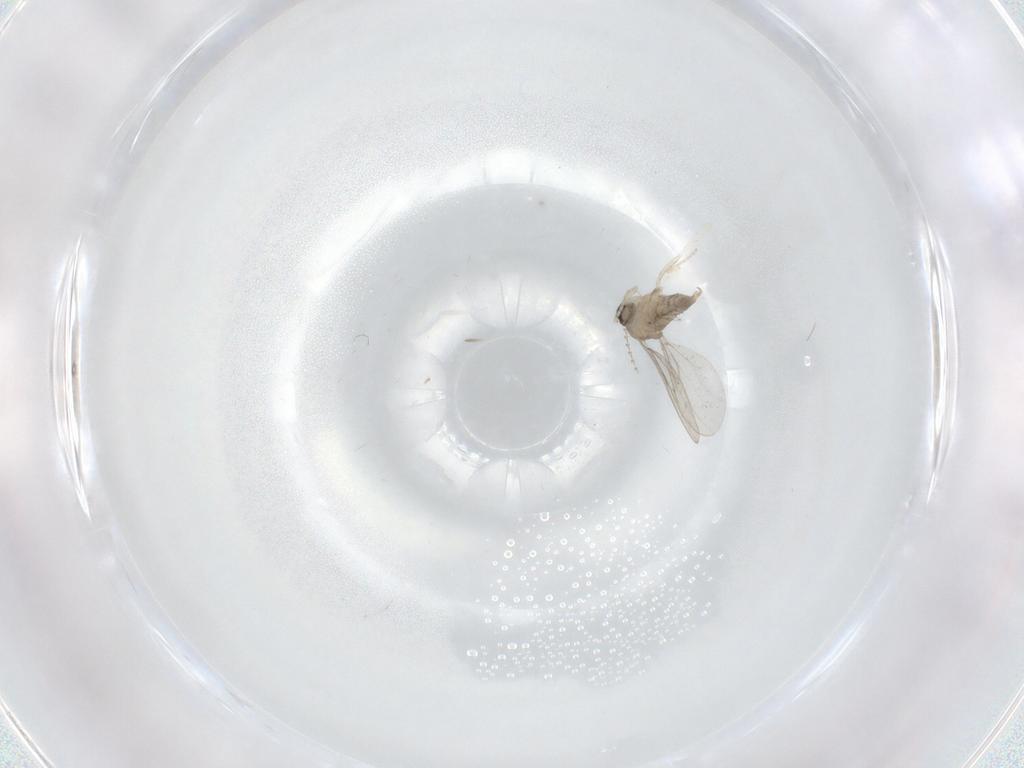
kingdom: Animalia
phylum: Arthropoda
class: Insecta
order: Diptera
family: Cecidomyiidae
